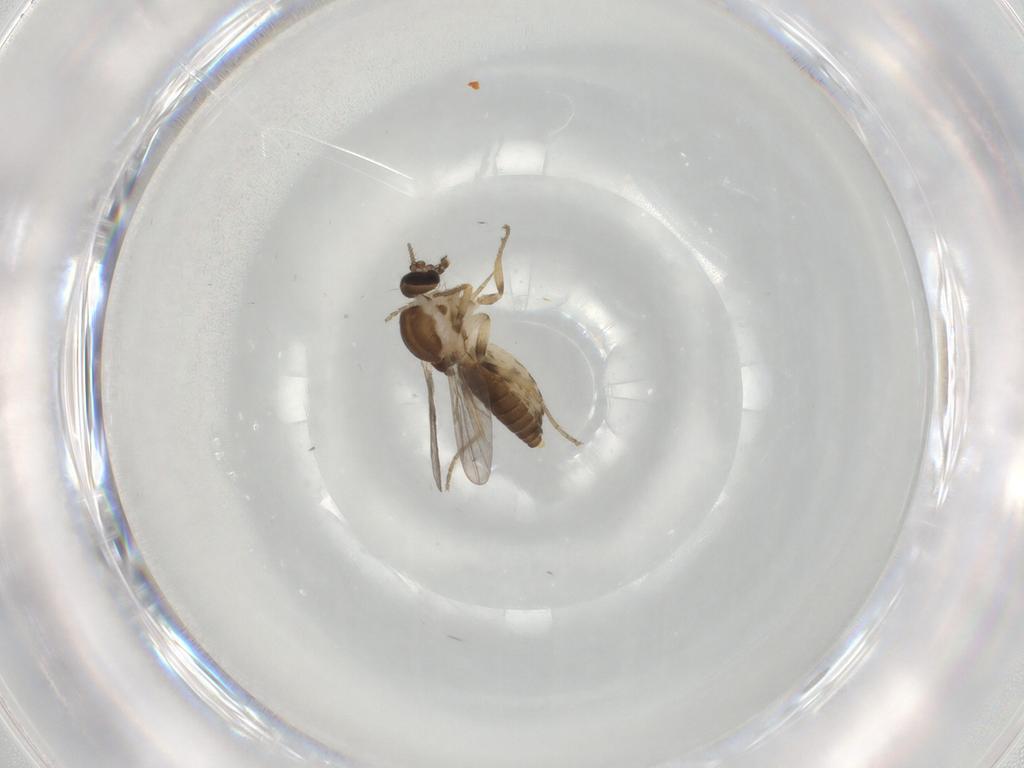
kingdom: Animalia
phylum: Arthropoda
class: Insecta
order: Diptera
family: Ceratopogonidae
